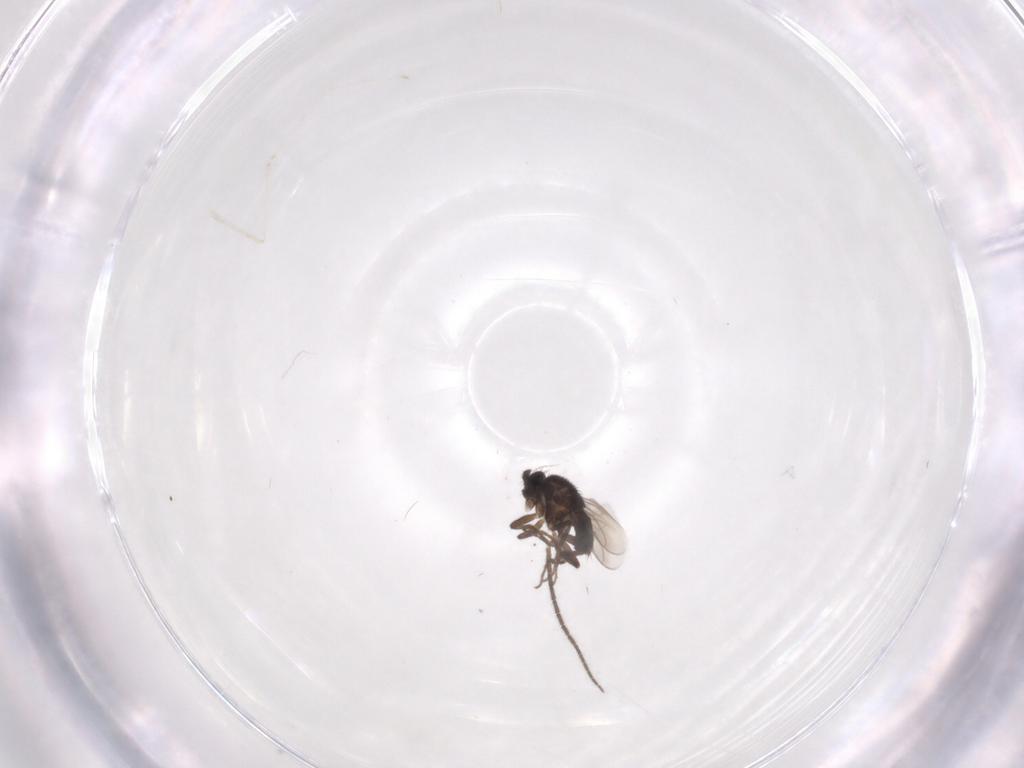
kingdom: Animalia
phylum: Arthropoda
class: Insecta
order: Diptera
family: Sciaridae
